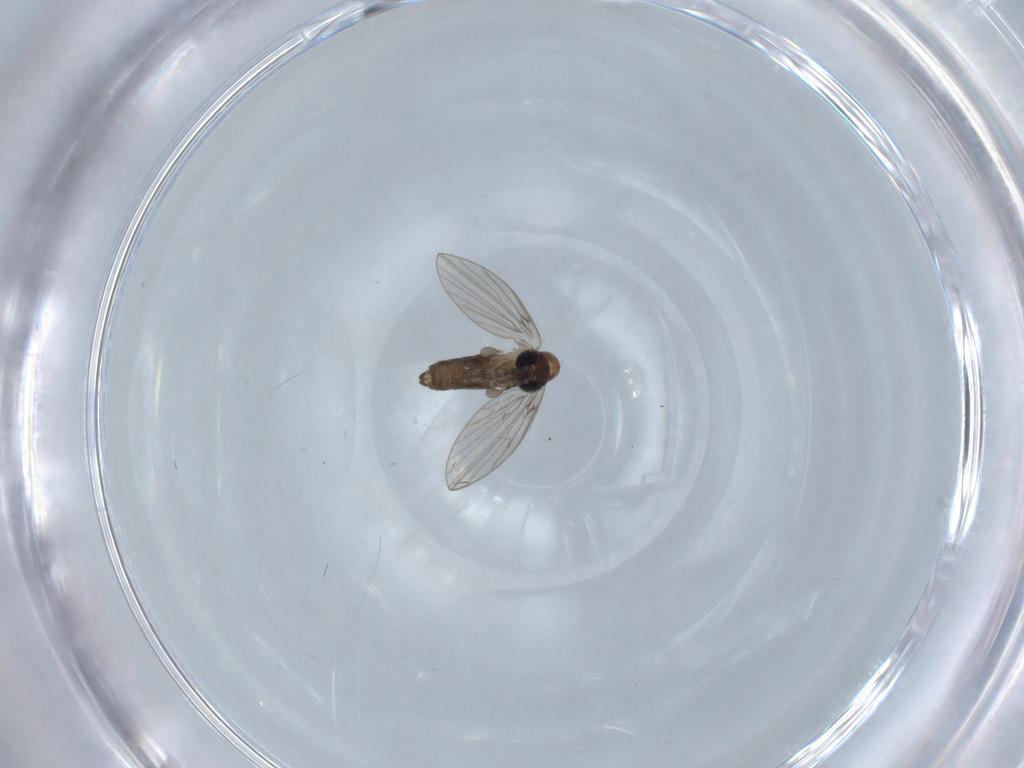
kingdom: Animalia
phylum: Arthropoda
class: Insecta
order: Diptera
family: Psychodidae
